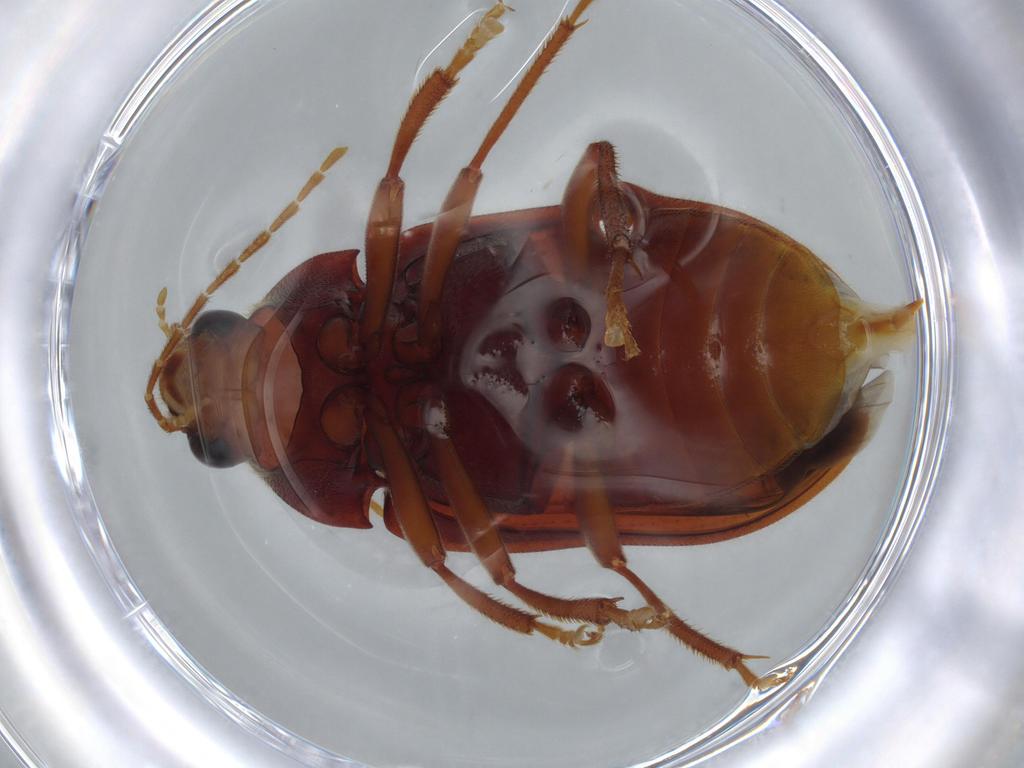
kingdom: Animalia
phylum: Arthropoda
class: Insecta
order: Coleoptera
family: Ptilodactylidae
